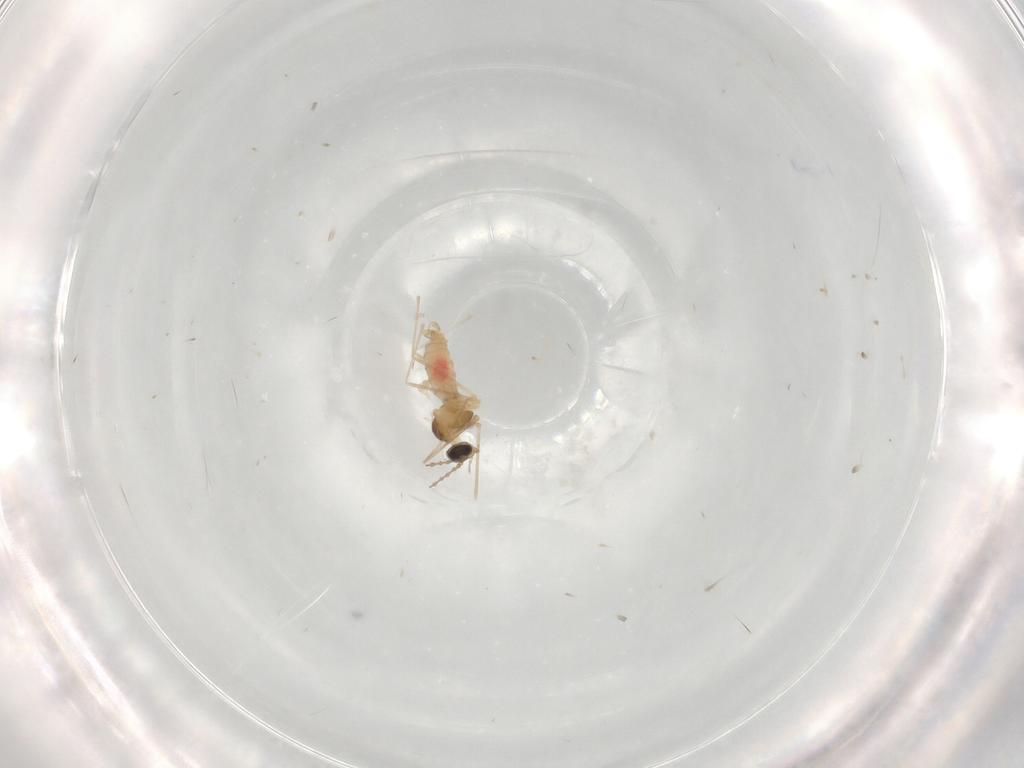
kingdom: Animalia
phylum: Arthropoda
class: Insecta
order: Diptera
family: Cecidomyiidae
